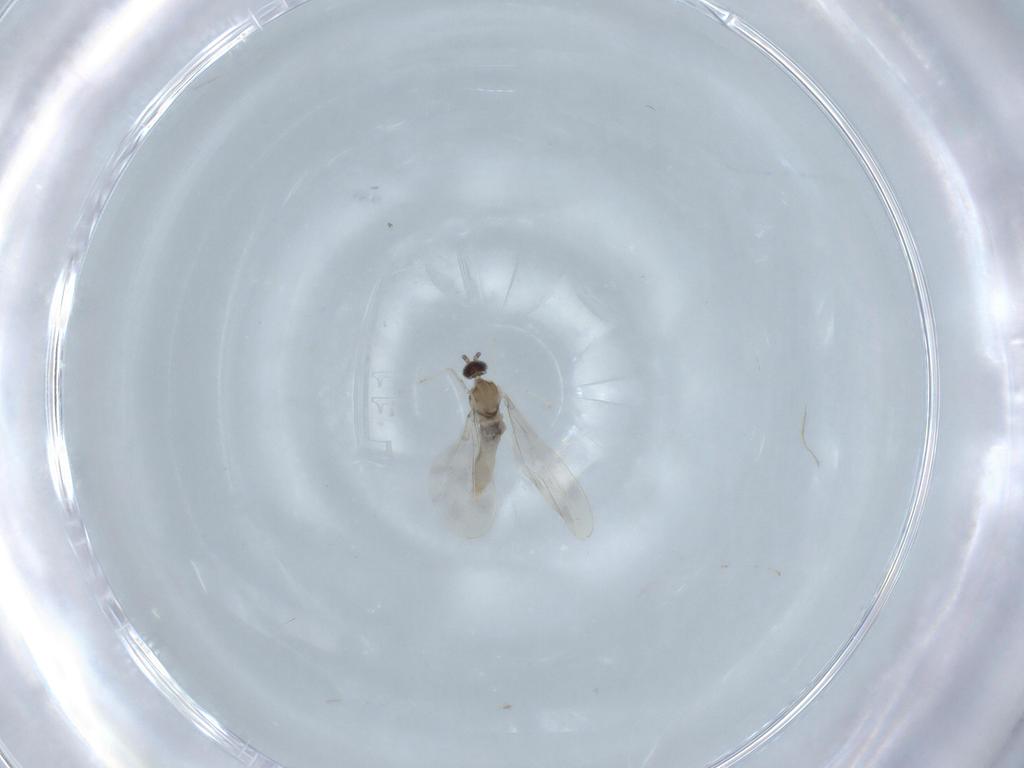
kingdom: Animalia
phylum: Arthropoda
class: Insecta
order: Diptera
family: Cecidomyiidae
